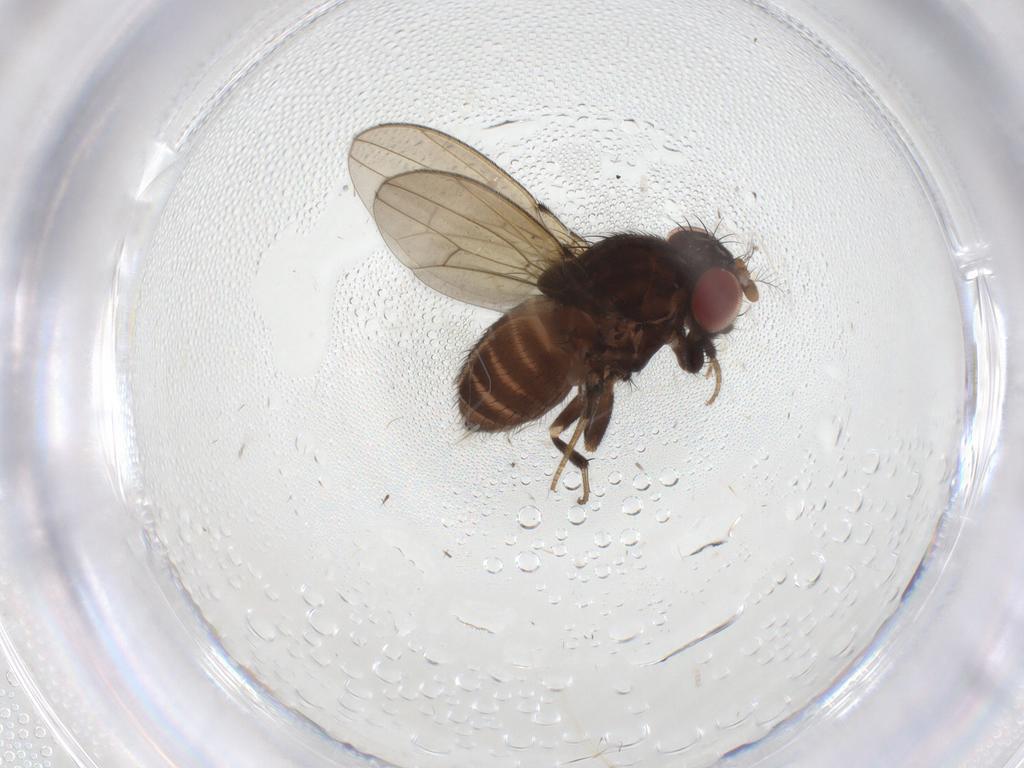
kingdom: Animalia
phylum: Arthropoda
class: Insecta
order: Diptera
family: Drosophilidae
